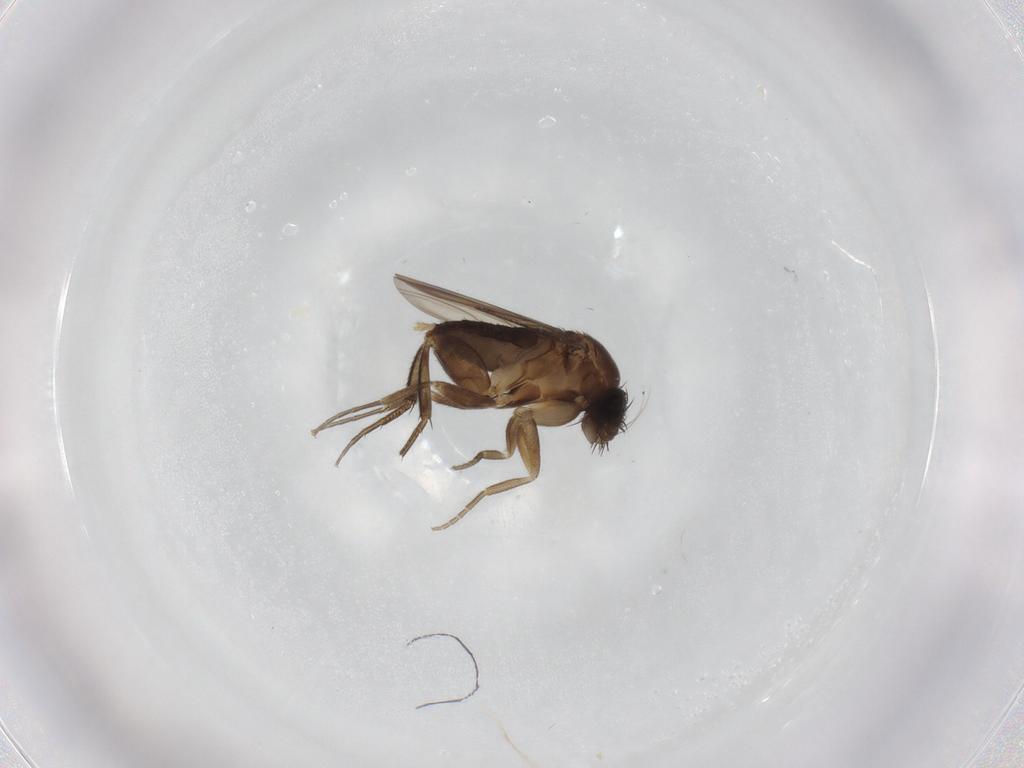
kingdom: Animalia
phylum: Arthropoda
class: Insecta
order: Diptera
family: Phoridae
